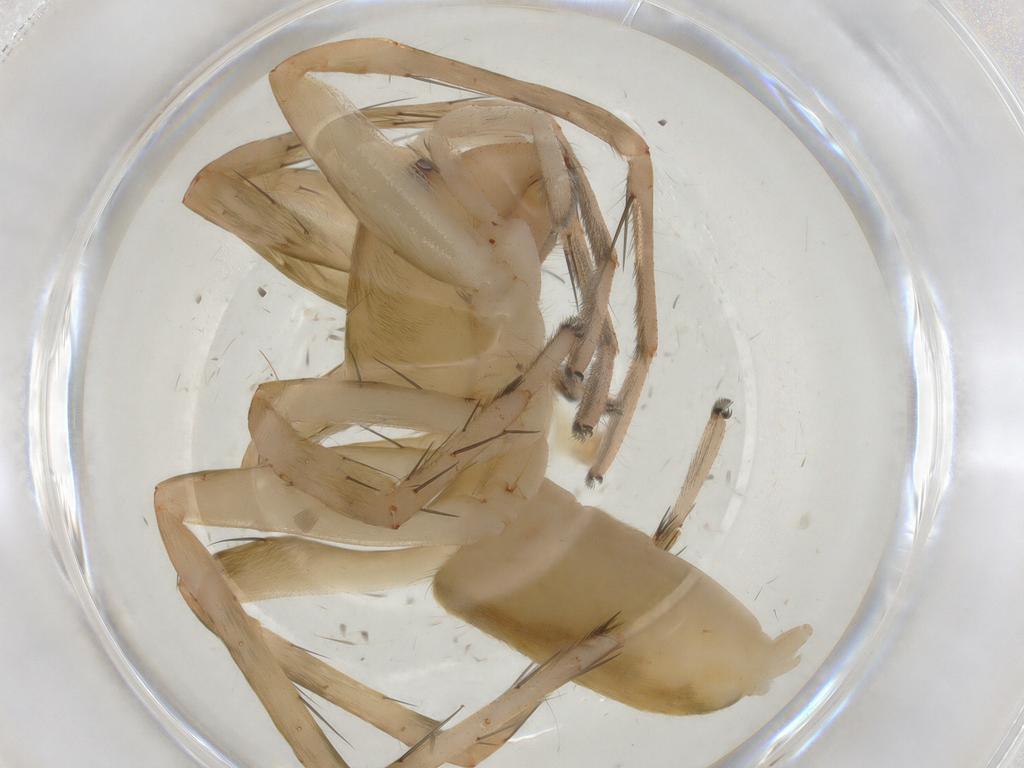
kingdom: Animalia
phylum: Arthropoda
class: Arachnida
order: Araneae
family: Anyphaenidae
